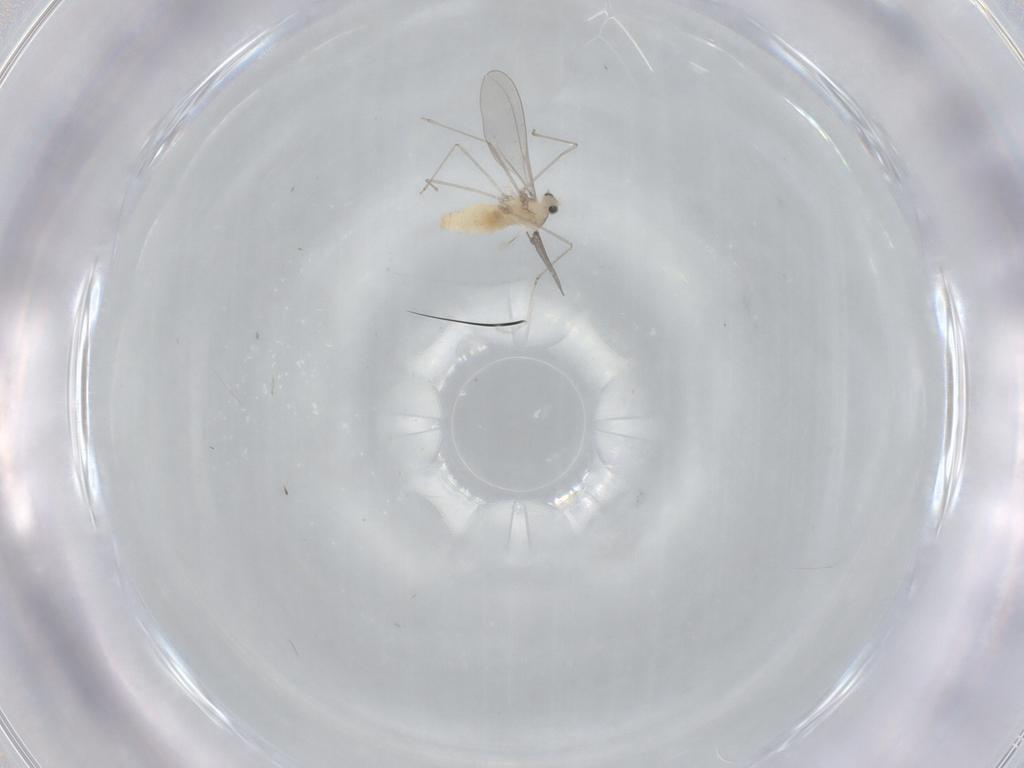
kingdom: Animalia
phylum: Arthropoda
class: Insecta
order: Diptera
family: Cecidomyiidae
